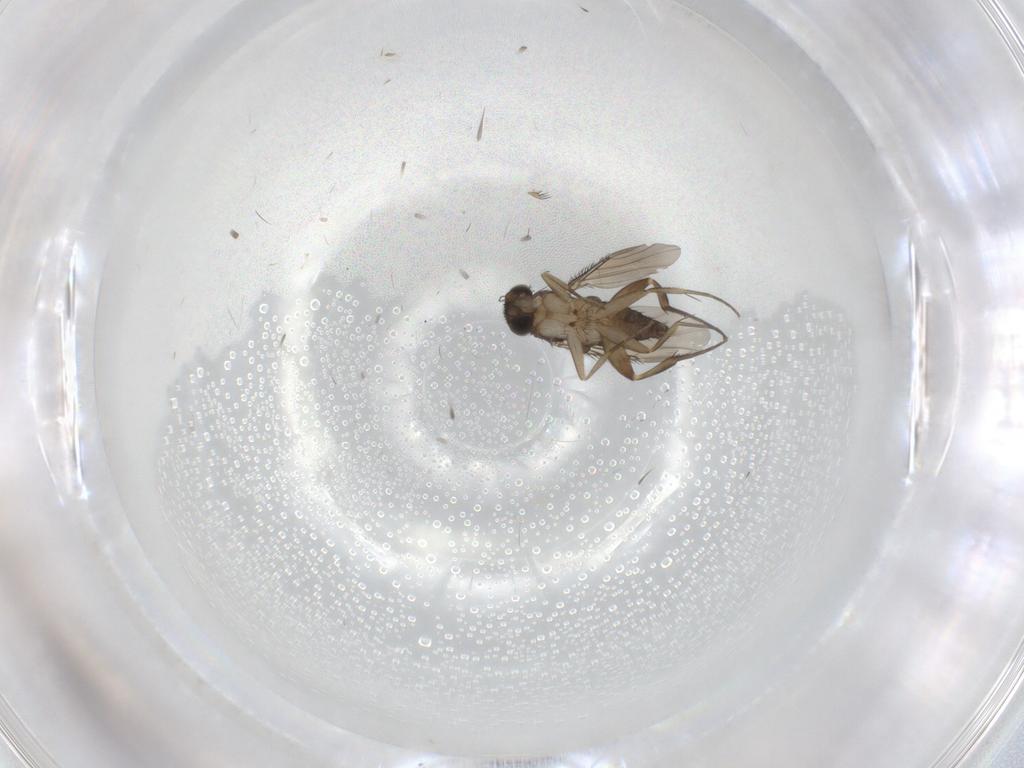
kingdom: Animalia
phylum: Arthropoda
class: Insecta
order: Diptera
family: Phoridae
